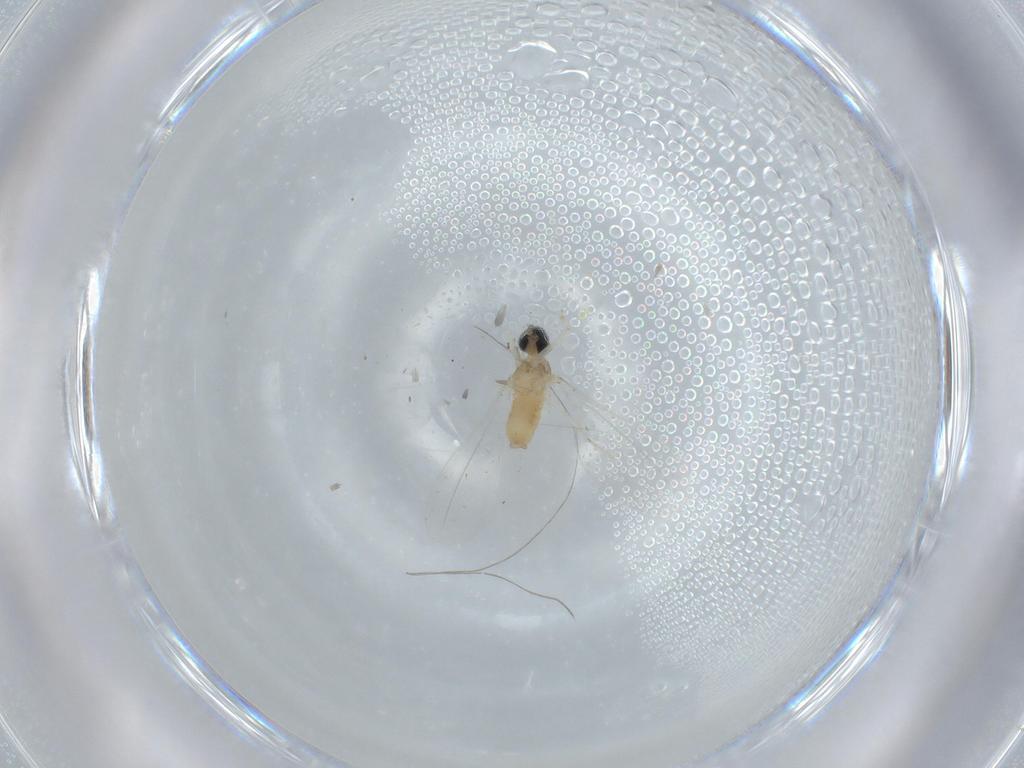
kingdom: Animalia
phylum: Arthropoda
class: Insecta
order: Diptera
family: Cecidomyiidae
